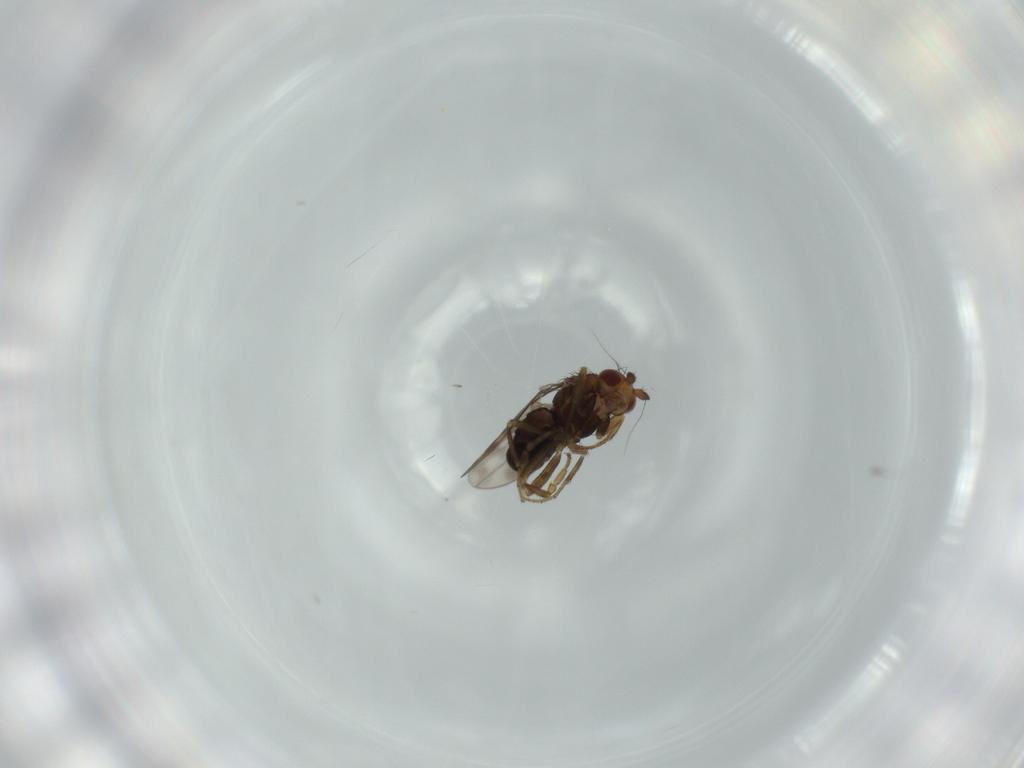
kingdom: Animalia
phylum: Arthropoda
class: Insecta
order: Diptera
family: Sphaeroceridae
